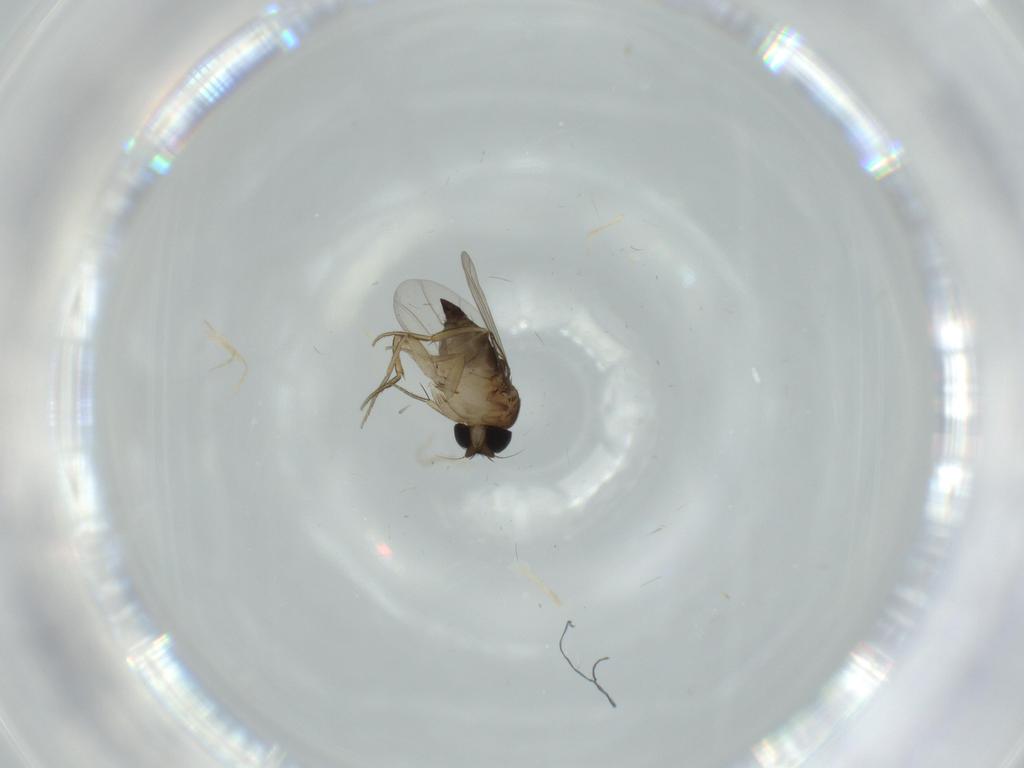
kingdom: Animalia
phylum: Arthropoda
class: Insecta
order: Diptera
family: Phoridae
